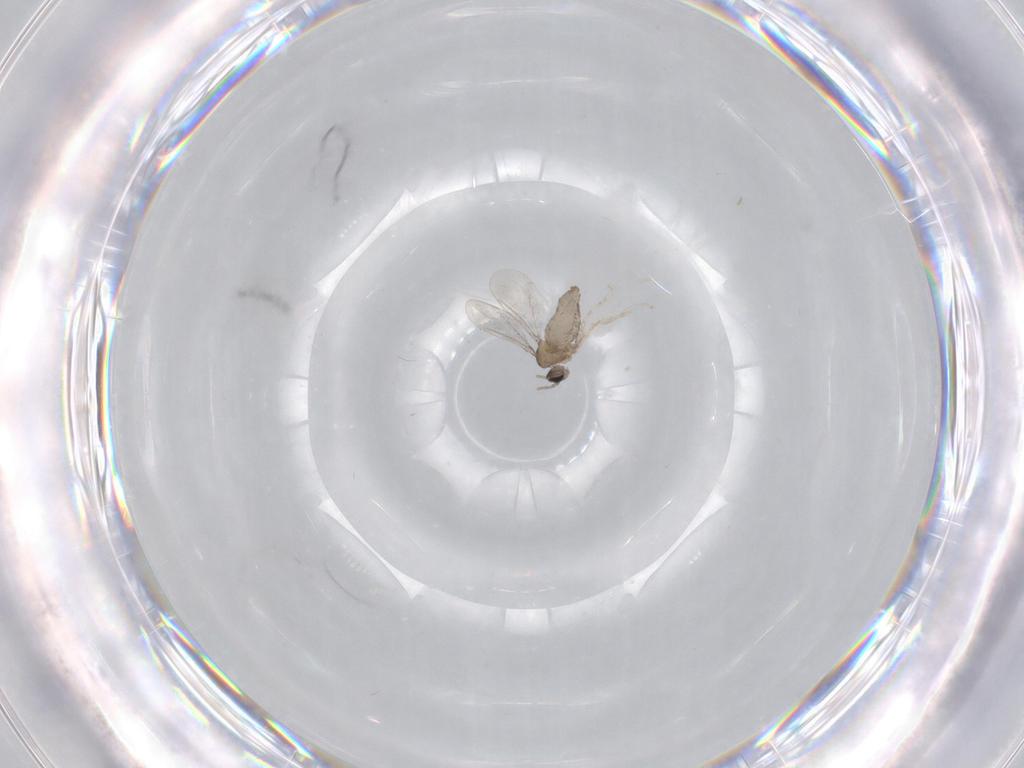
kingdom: Animalia
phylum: Arthropoda
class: Insecta
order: Diptera
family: Cecidomyiidae
